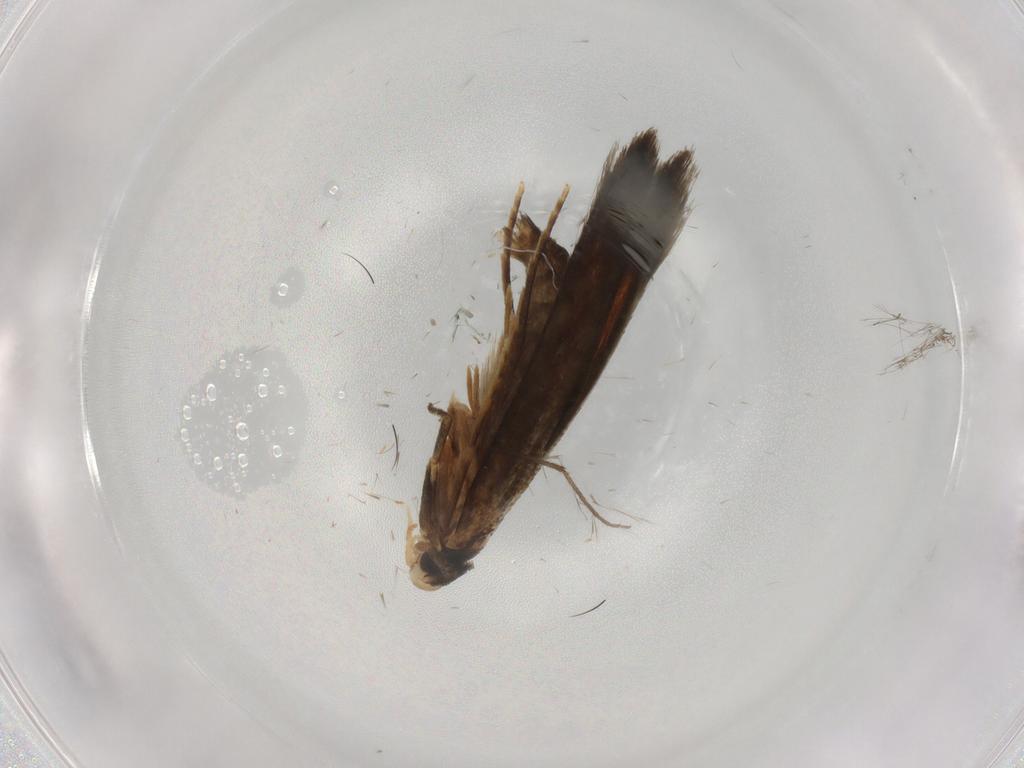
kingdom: Animalia
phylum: Arthropoda
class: Insecta
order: Lepidoptera
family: Tineidae
